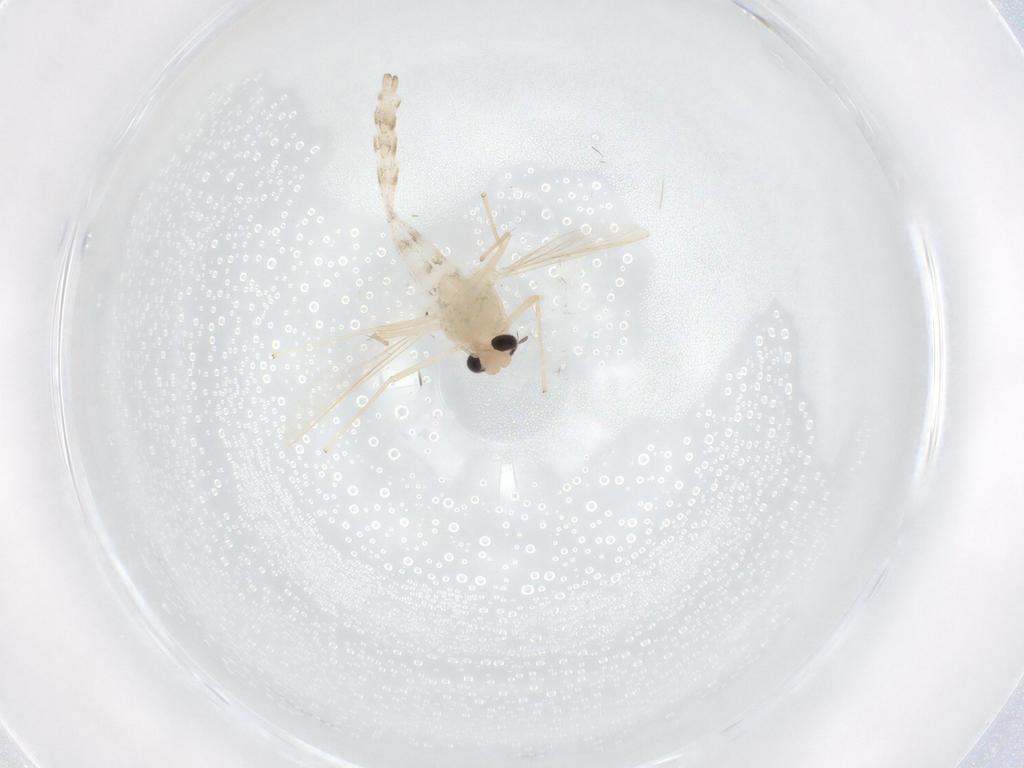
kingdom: Animalia
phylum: Arthropoda
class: Insecta
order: Diptera
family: Chironomidae
